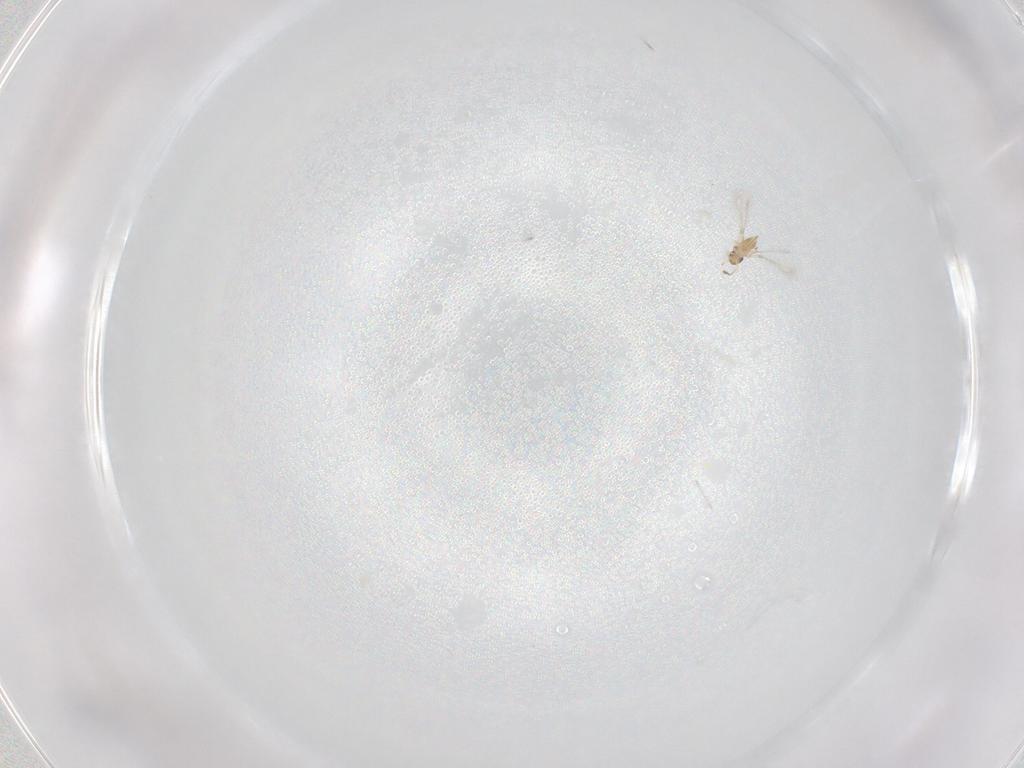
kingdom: Animalia
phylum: Arthropoda
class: Insecta
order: Hymenoptera
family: Mymaridae
